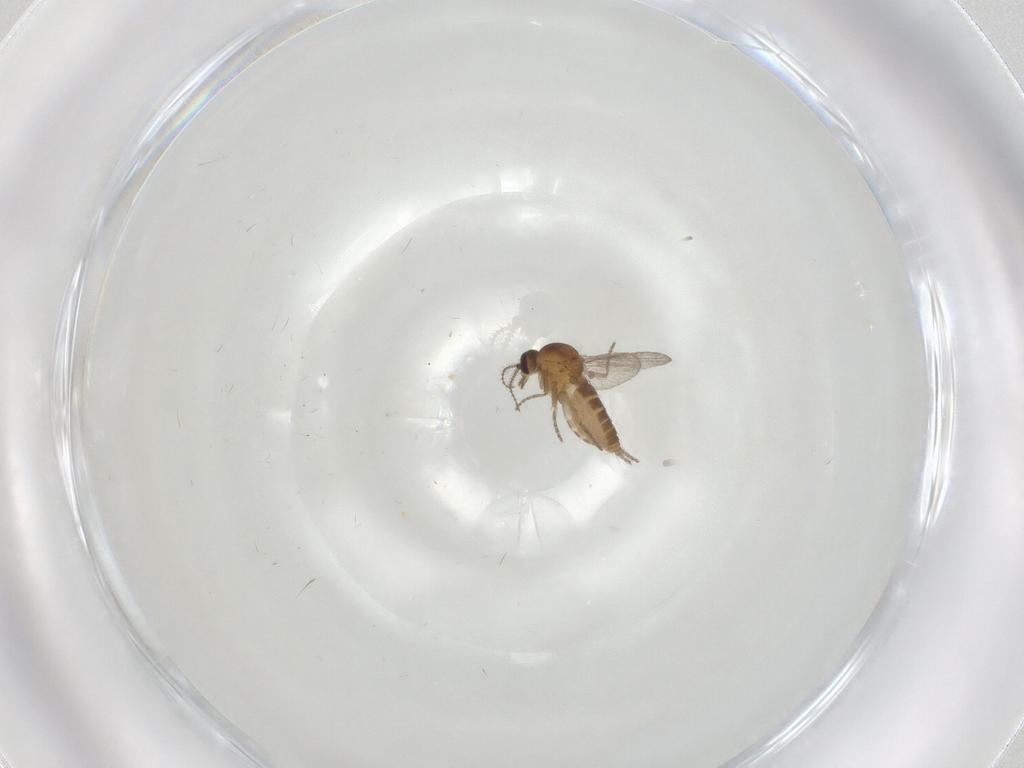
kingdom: Animalia
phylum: Arthropoda
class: Insecta
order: Diptera
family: Ceratopogonidae
